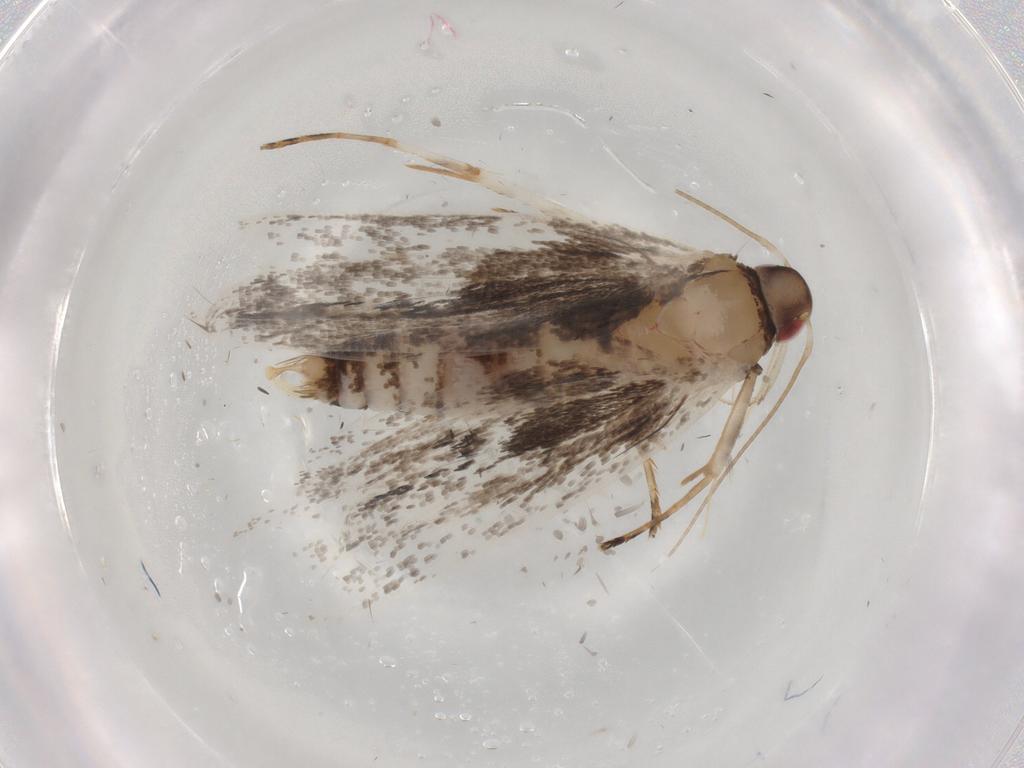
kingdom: Animalia
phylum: Arthropoda
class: Insecta
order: Lepidoptera
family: Gelechiidae
